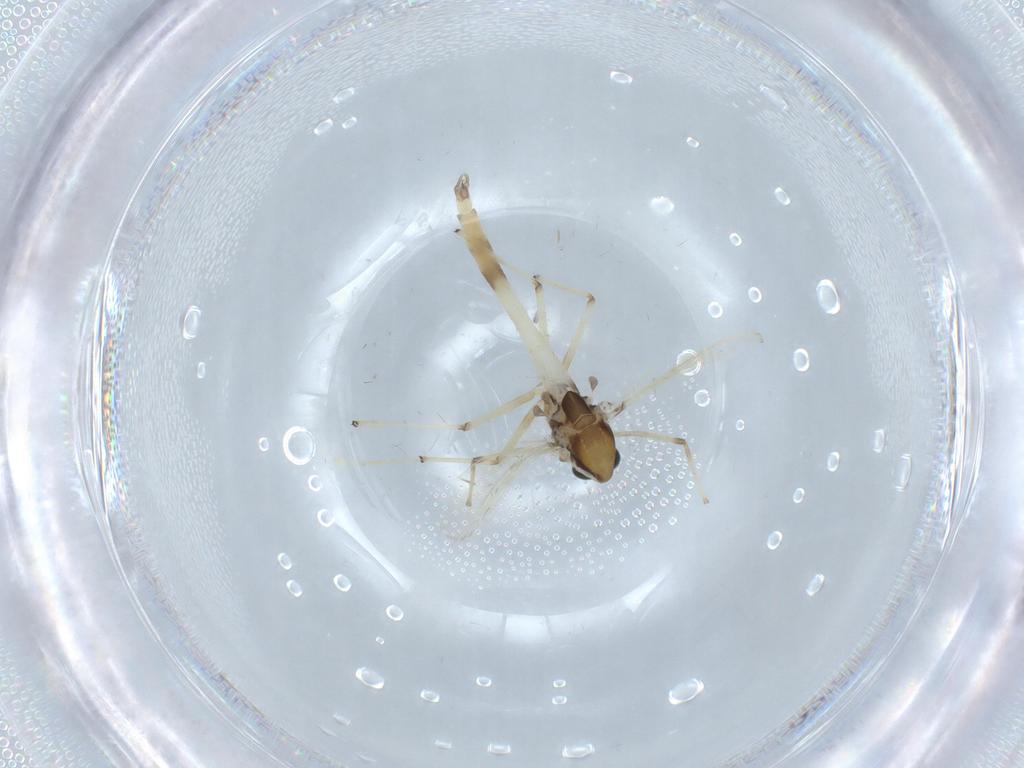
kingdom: Animalia
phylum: Arthropoda
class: Insecta
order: Diptera
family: Chironomidae
